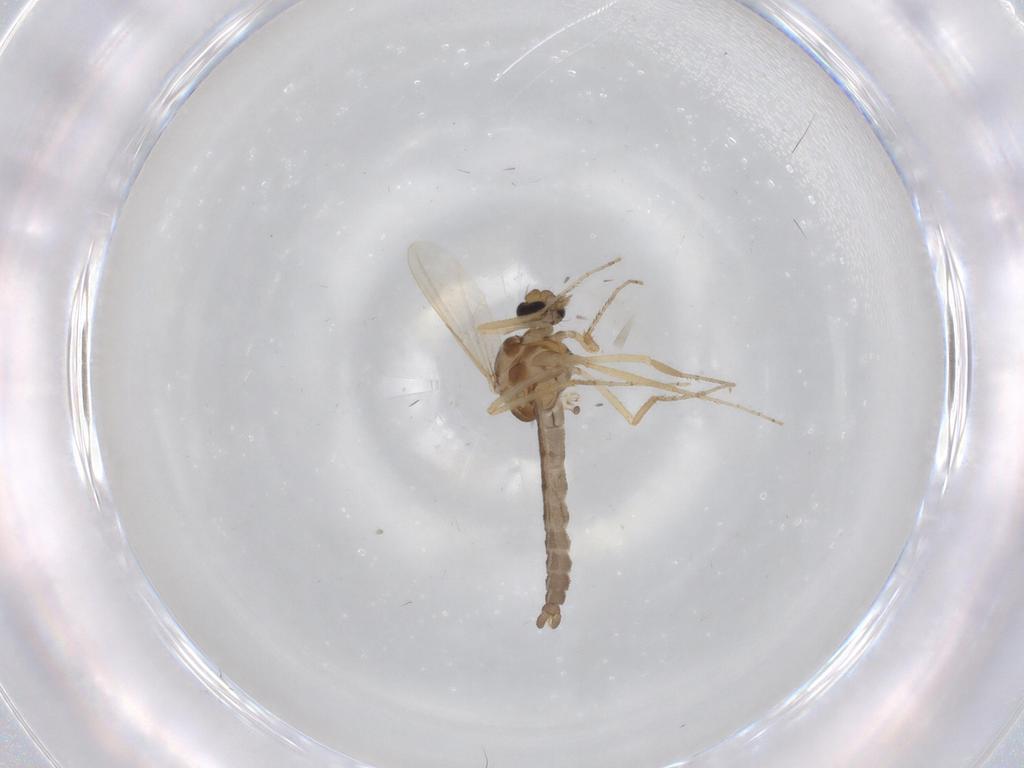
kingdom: Animalia
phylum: Arthropoda
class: Insecta
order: Diptera
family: Ceratopogonidae
